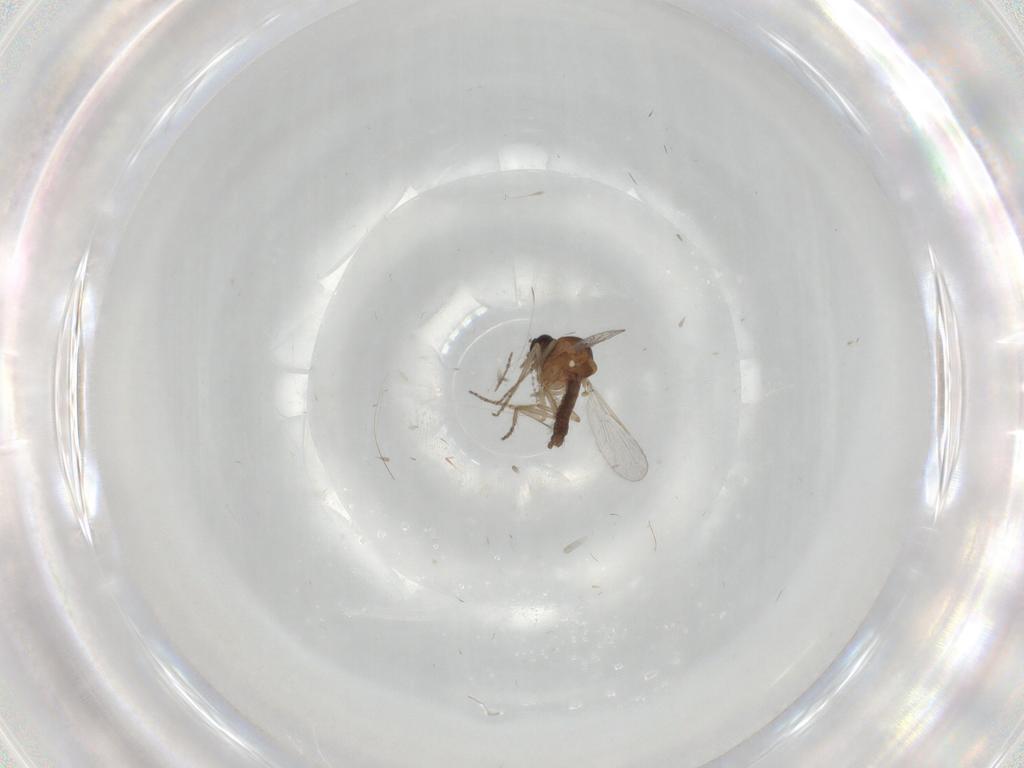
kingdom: Animalia
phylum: Arthropoda
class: Insecta
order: Diptera
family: Ceratopogonidae
